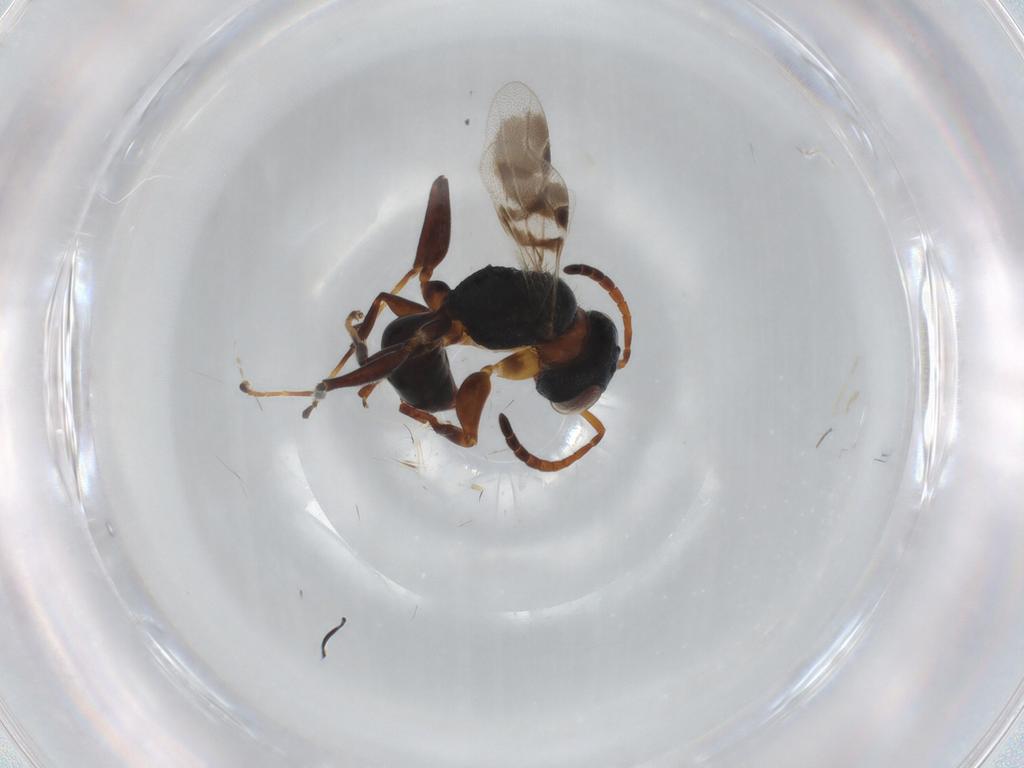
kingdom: Animalia
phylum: Arthropoda
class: Insecta
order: Hymenoptera
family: Dryinidae
